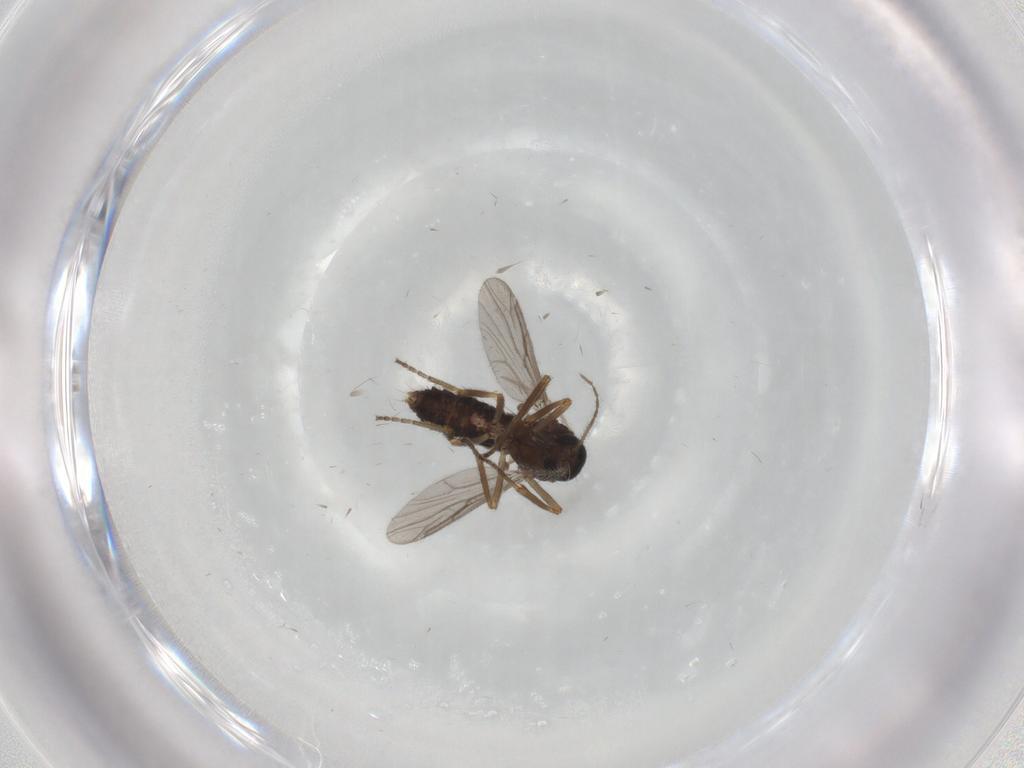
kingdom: Animalia
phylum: Arthropoda
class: Insecta
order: Diptera
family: Ceratopogonidae
